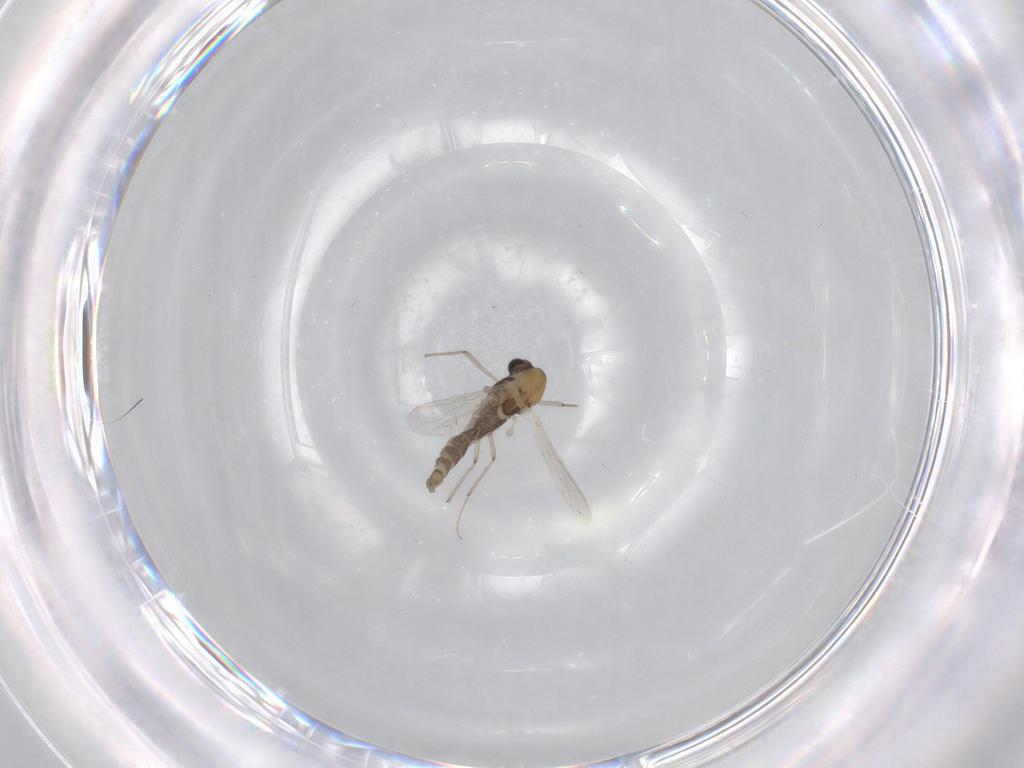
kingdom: Animalia
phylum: Arthropoda
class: Insecta
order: Diptera
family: Chironomidae
